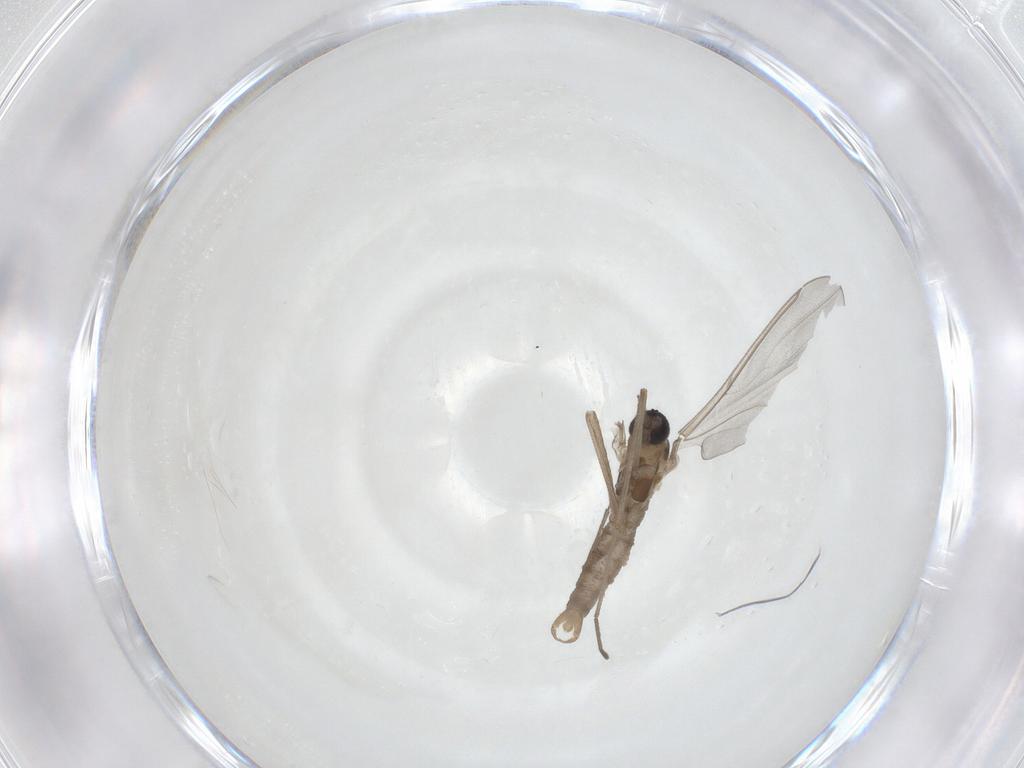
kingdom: Animalia
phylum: Arthropoda
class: Insecta
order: Diptera
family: Cecidomyiidae
